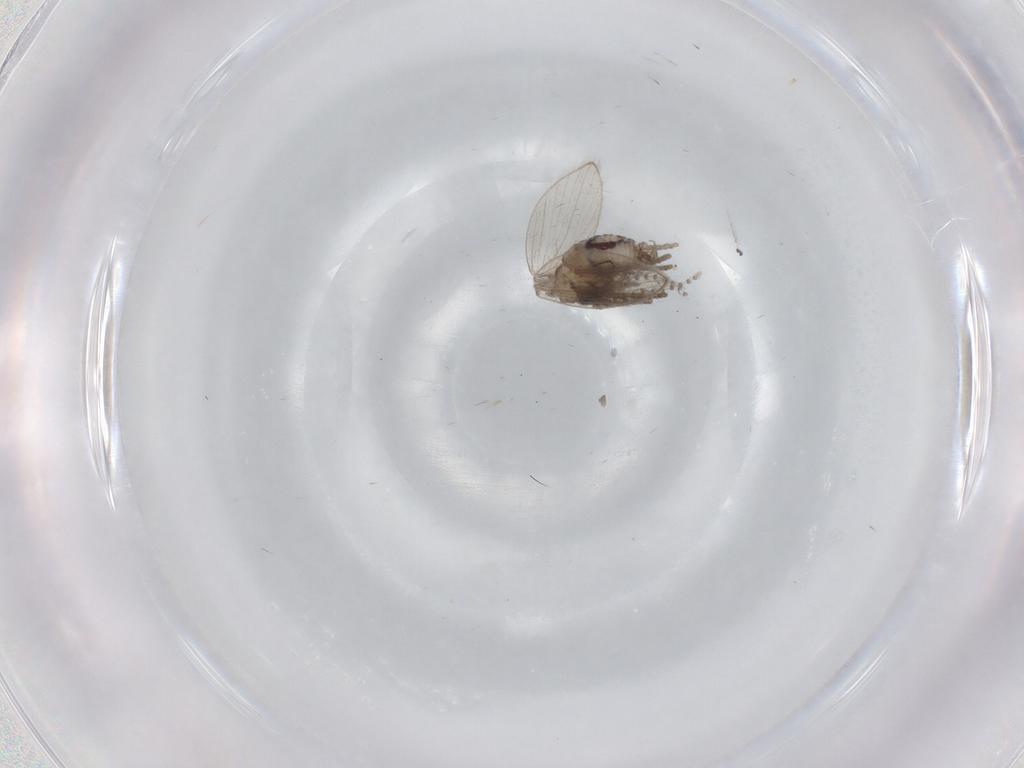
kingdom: Animalia
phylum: Arthropoda
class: Insecta
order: Diptera
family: Psychodidae
